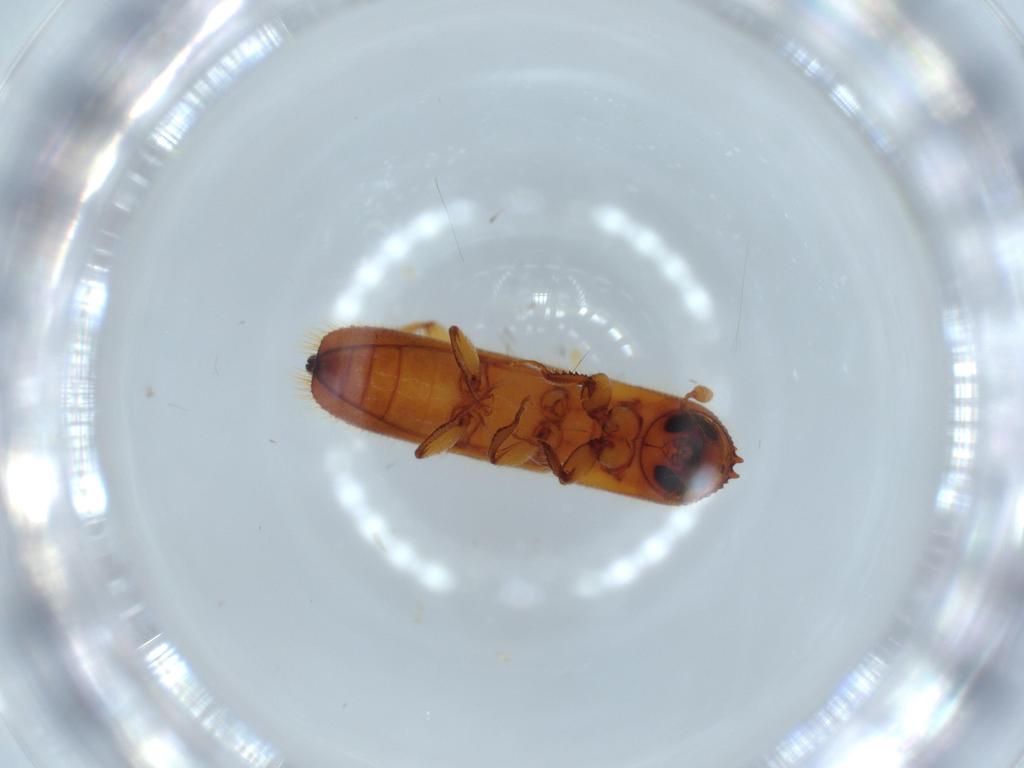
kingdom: Animalia
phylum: Arthropoda
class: Insecta
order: Coleoptera
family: Curculionidae
